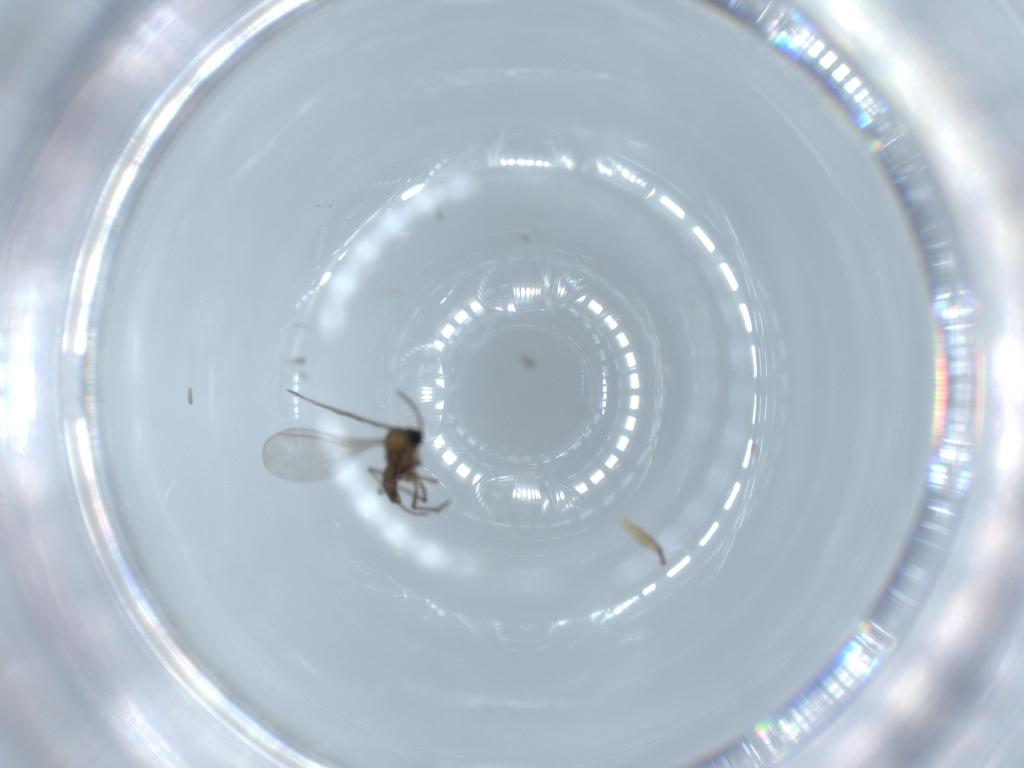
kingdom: Animalia
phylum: Arthropoda
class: Insecta
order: Diptera
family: Sciaridae
